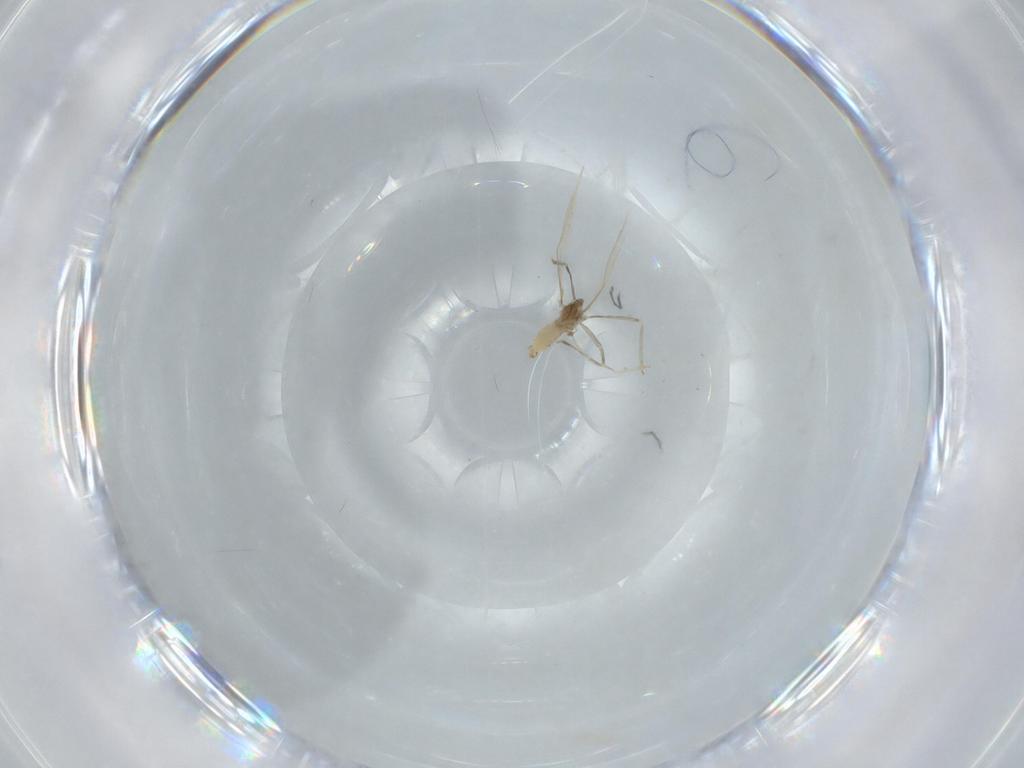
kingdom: Animalia
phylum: Arthropoda
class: Insecta
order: Diptera
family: Cecidomyiidae
